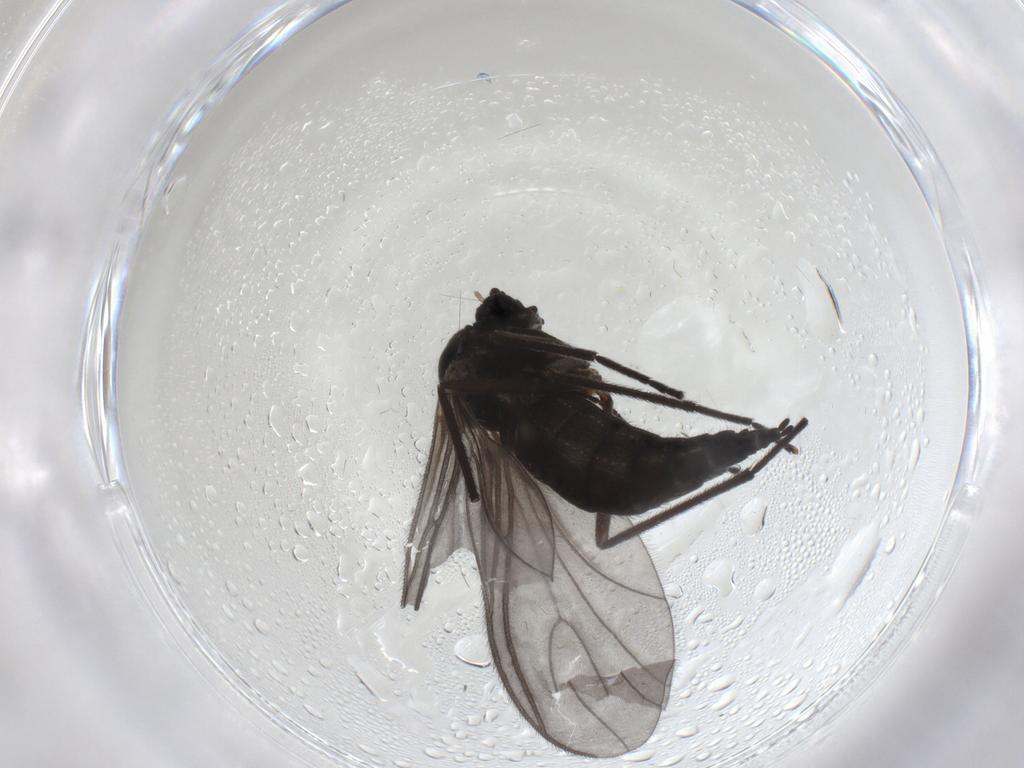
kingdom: Animalia
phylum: Arthropoda
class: Insecta
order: Diptera
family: Sciaridae
